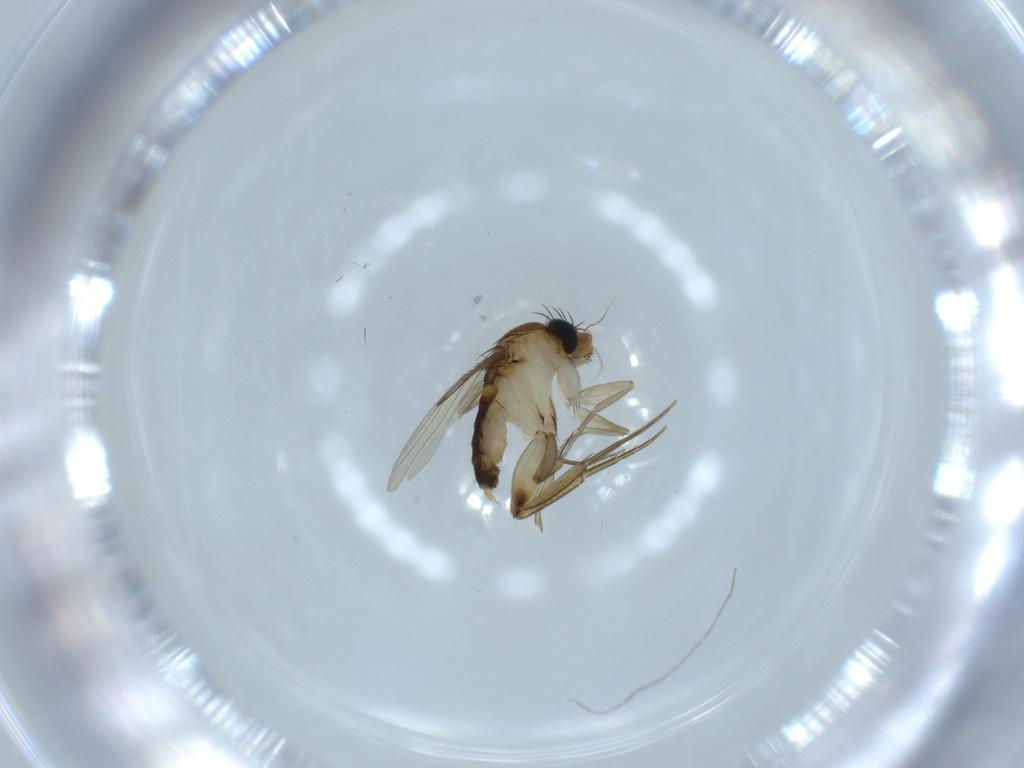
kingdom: Animalia
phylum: Arthropoda
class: Insecta
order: Diptera
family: Phoridae
